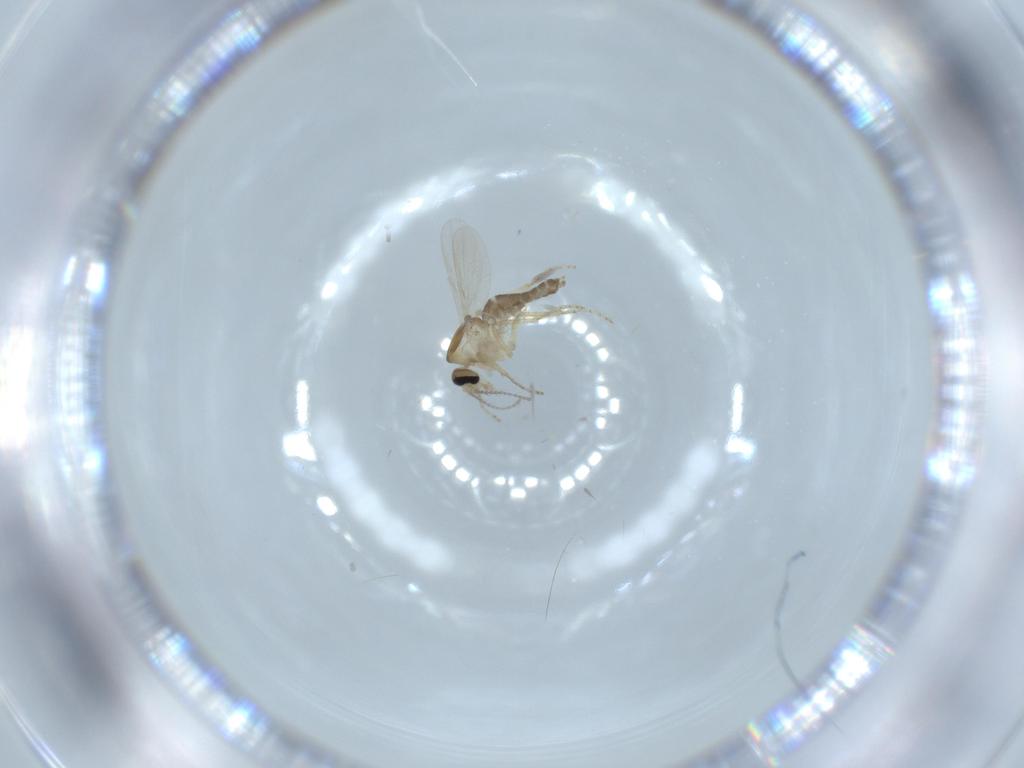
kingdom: Animalia
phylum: Arthropoda
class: Insecta
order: Diptera
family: Ceratopogonidae
